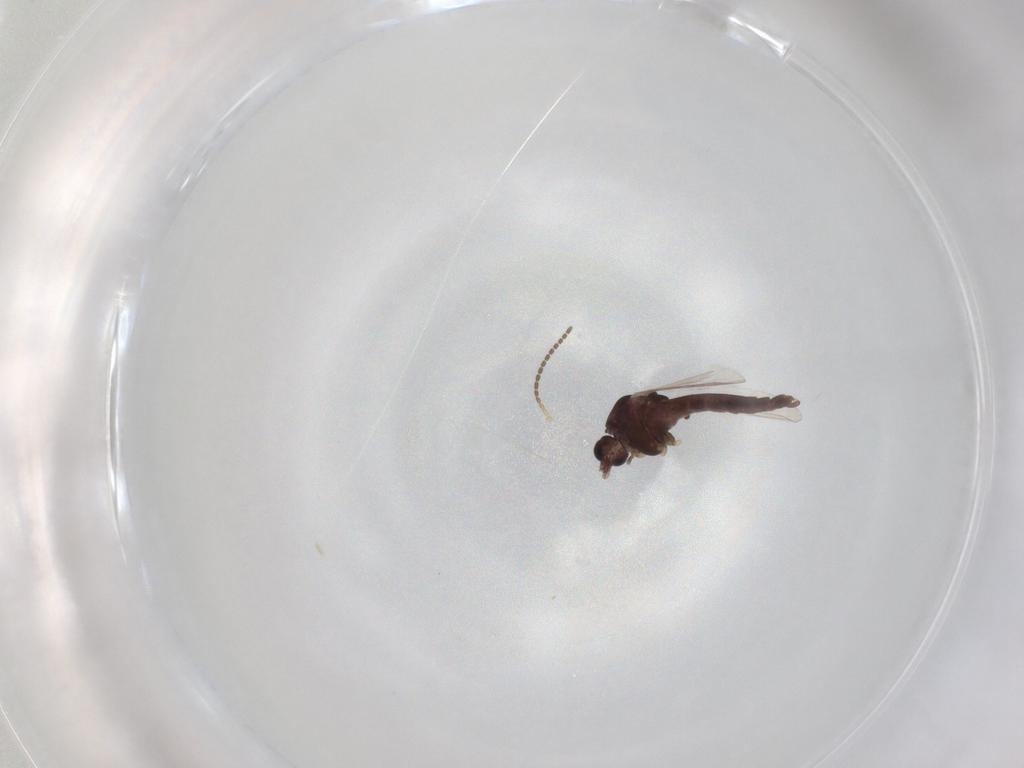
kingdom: Animalia
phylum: Arthropoda
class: Insecta
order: Diptera
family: Chironomidae
